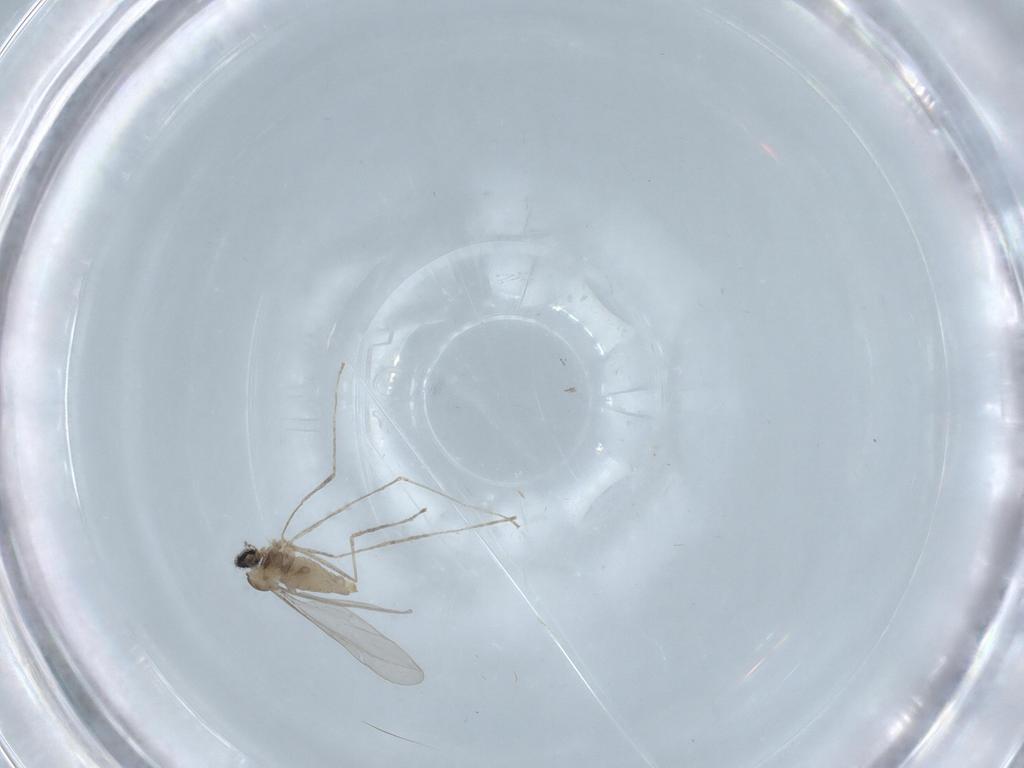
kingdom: Animalia
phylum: Arthropoda
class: Insecta
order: Diptera
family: Cecidomyiidae
